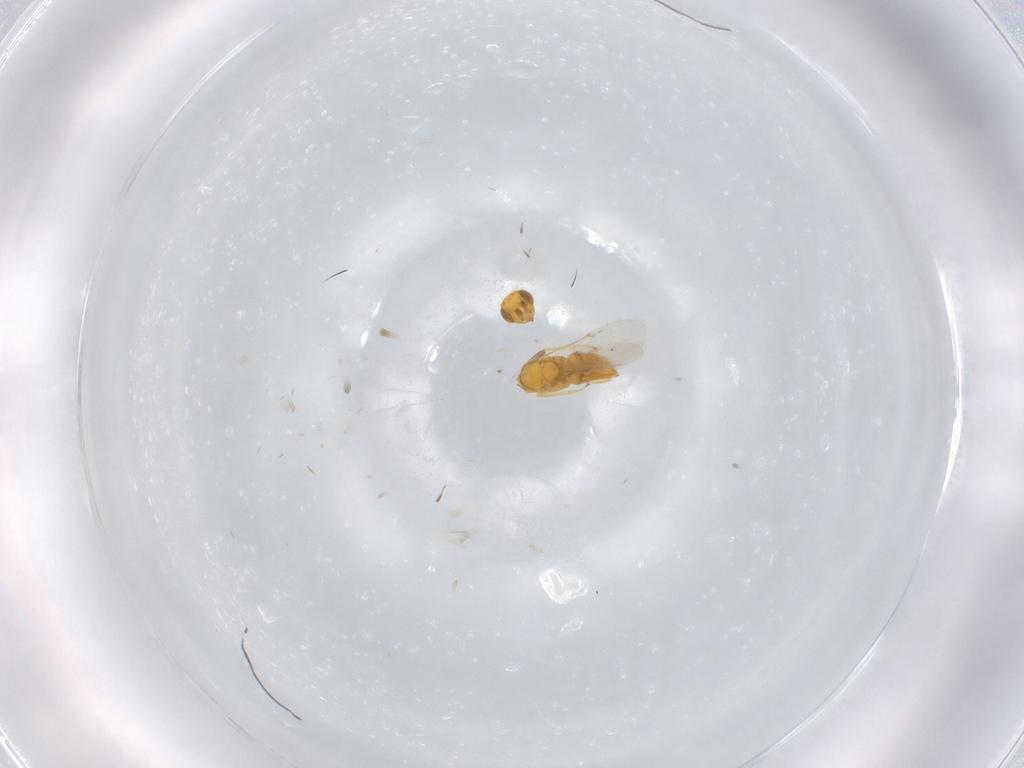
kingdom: Animalia
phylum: Arthropoda
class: Insecta
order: Hymenoptera
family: Encyrtidae
